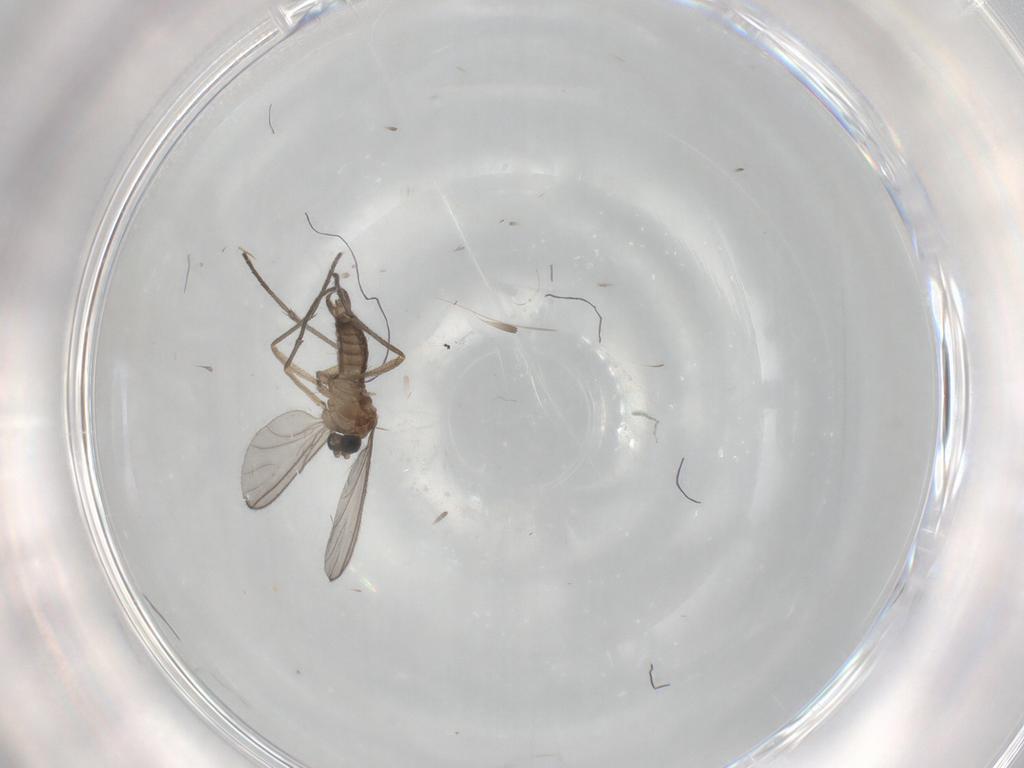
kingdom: Animalia
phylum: Arthropoda
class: Insecta
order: Diptera
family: Sciaridae
